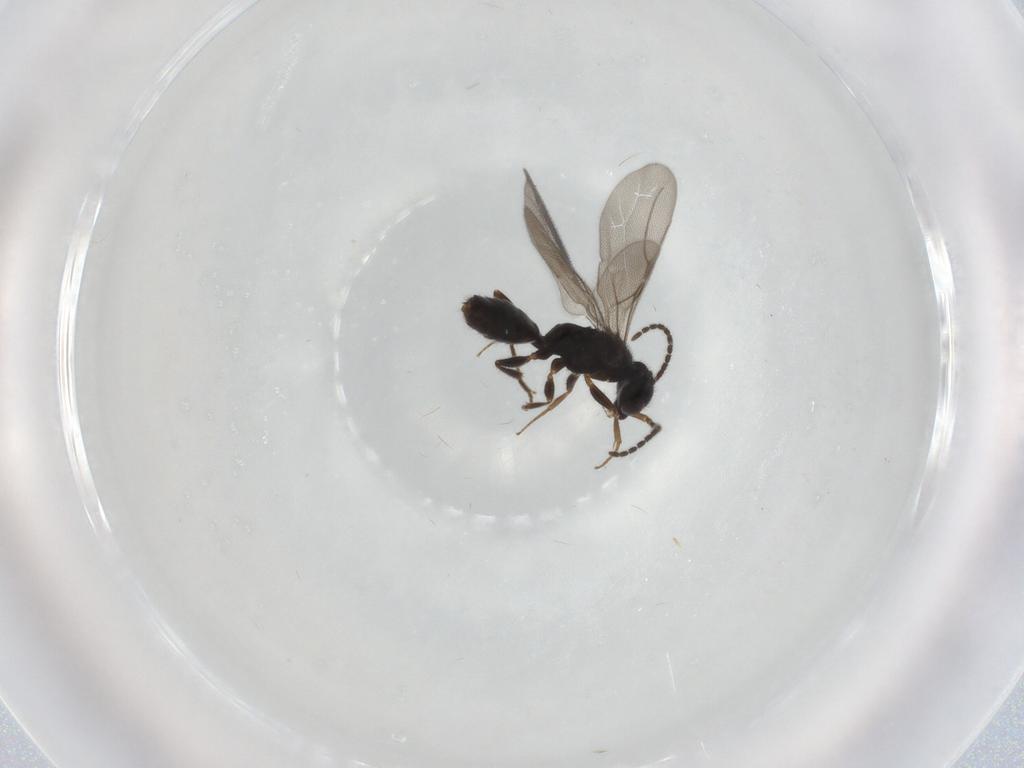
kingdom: Animalia
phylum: Arthropoda
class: Insecta
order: Hymenoptera
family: Bethylidae
